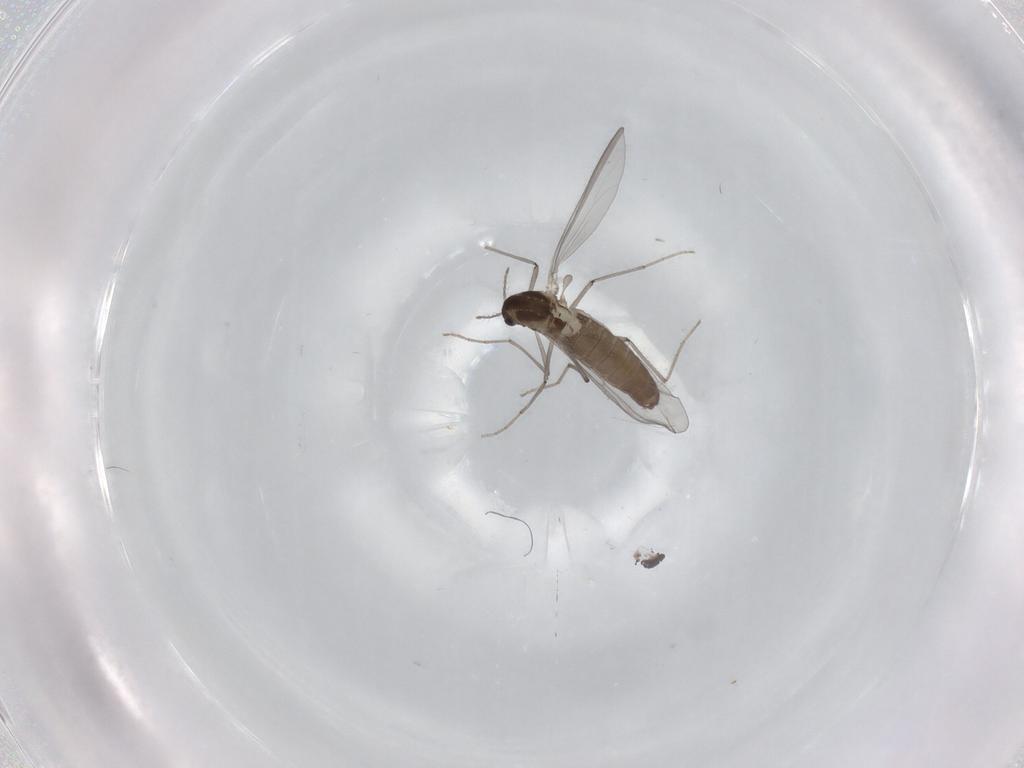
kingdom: Animalia
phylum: Arthropoda
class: Insecta
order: Diptera
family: Chironomidae
